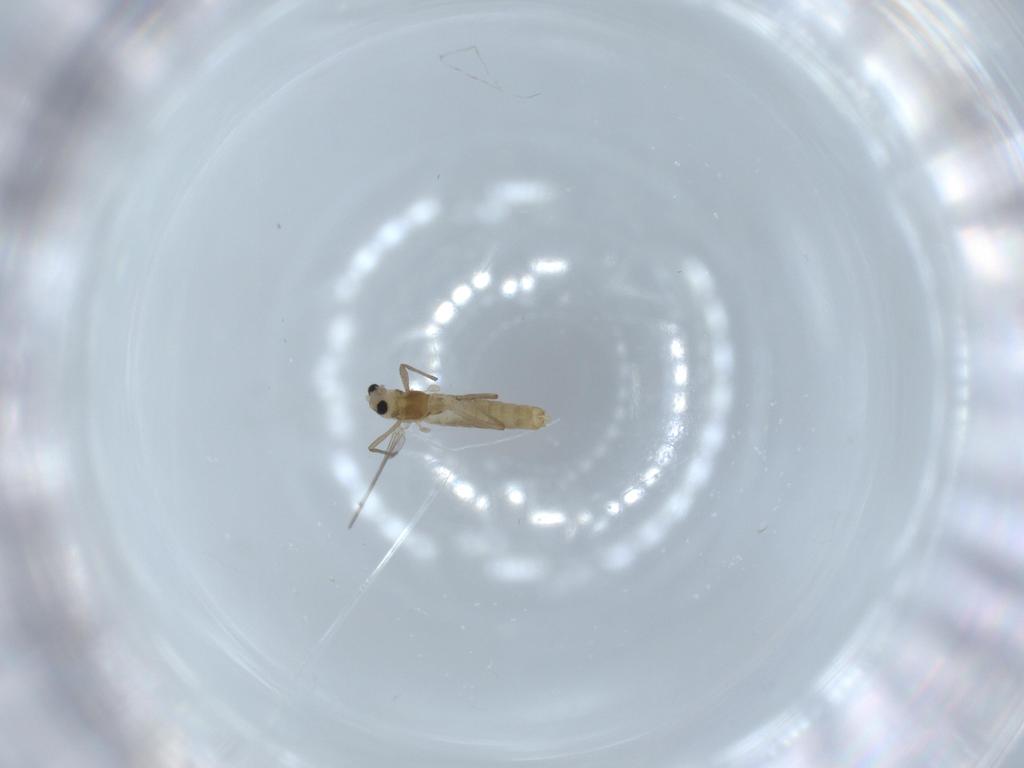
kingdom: Animalia
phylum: Arthropoda
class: Insecta
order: Diptera
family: Chironomidae
